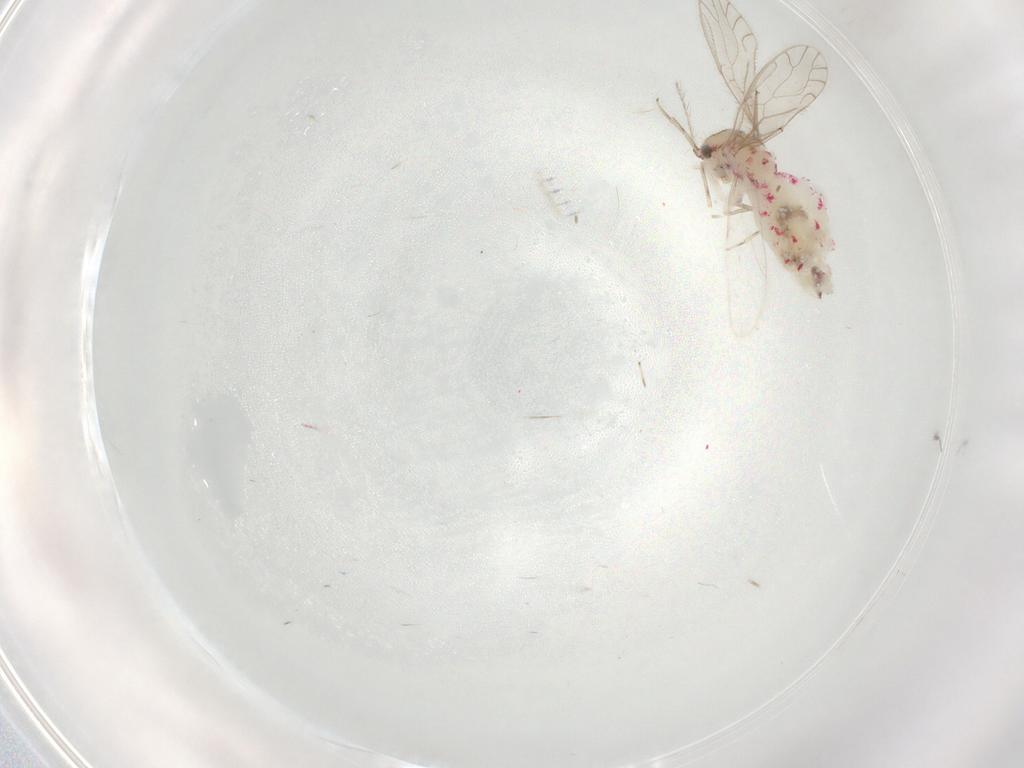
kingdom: Animalia
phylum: Arthropoda
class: Insecta
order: Psocodea
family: Caeciliusidae
